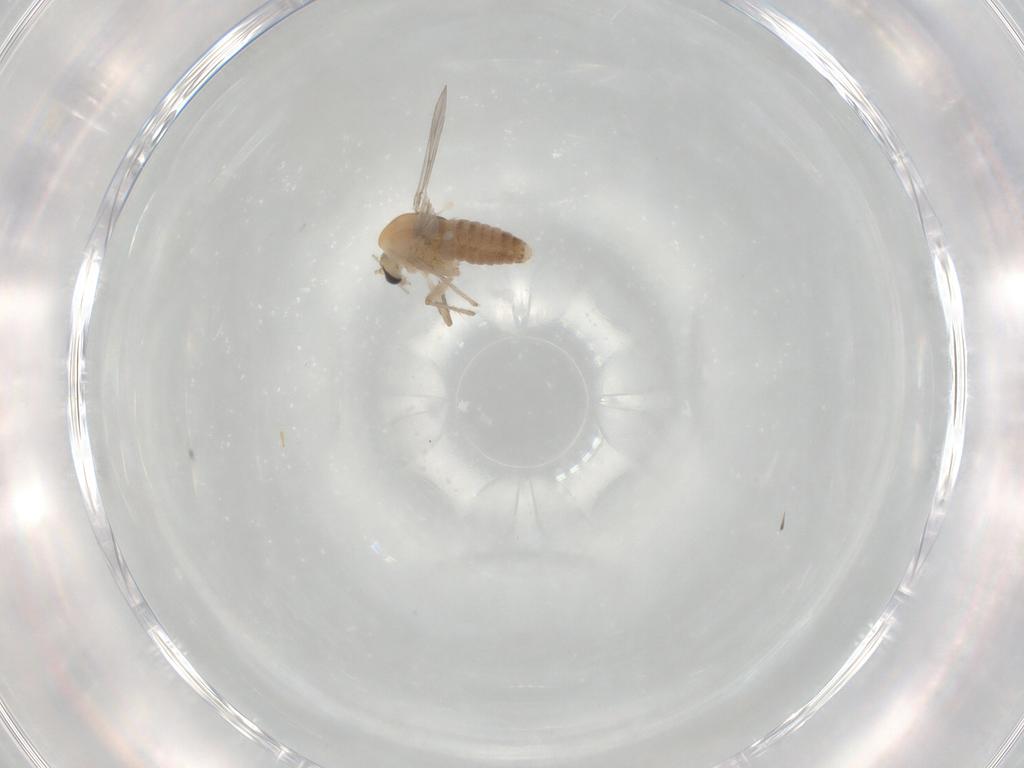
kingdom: Animalia
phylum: Arthropoda
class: Insecta
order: Diptera
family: Chironomidae
